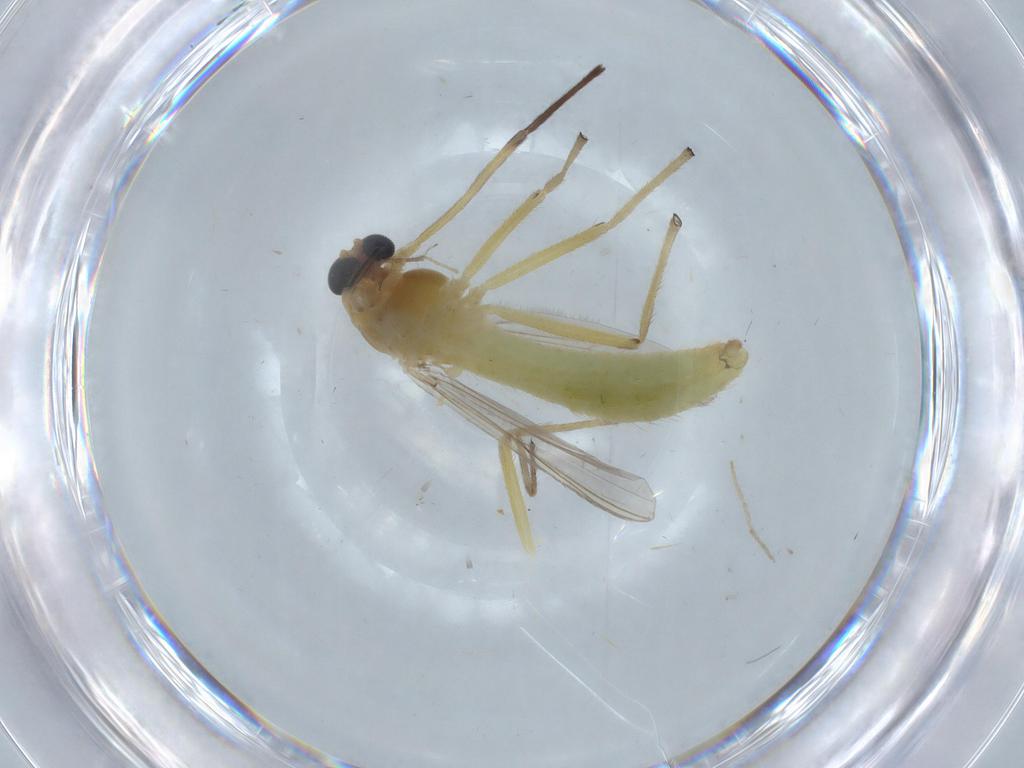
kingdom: Animalia
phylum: Arthropoda
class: Insecta
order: Diptera
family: Chironomidae
